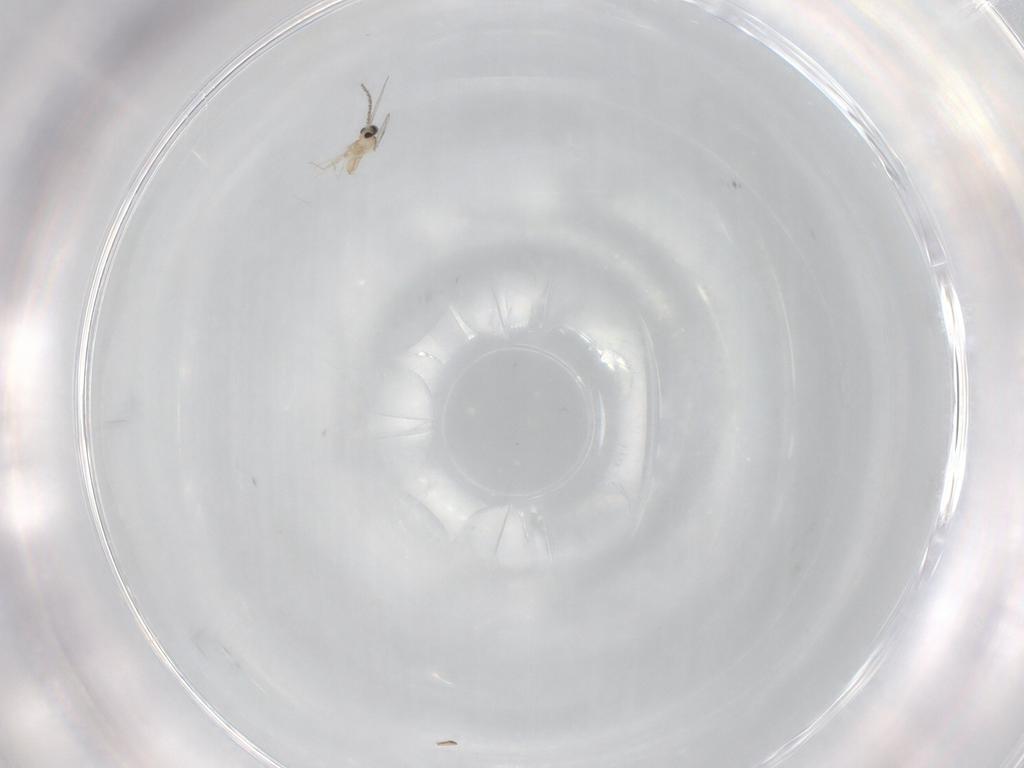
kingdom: Animalia
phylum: Arthropoda
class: Insecta
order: Diptera
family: Cecidomyiidae
